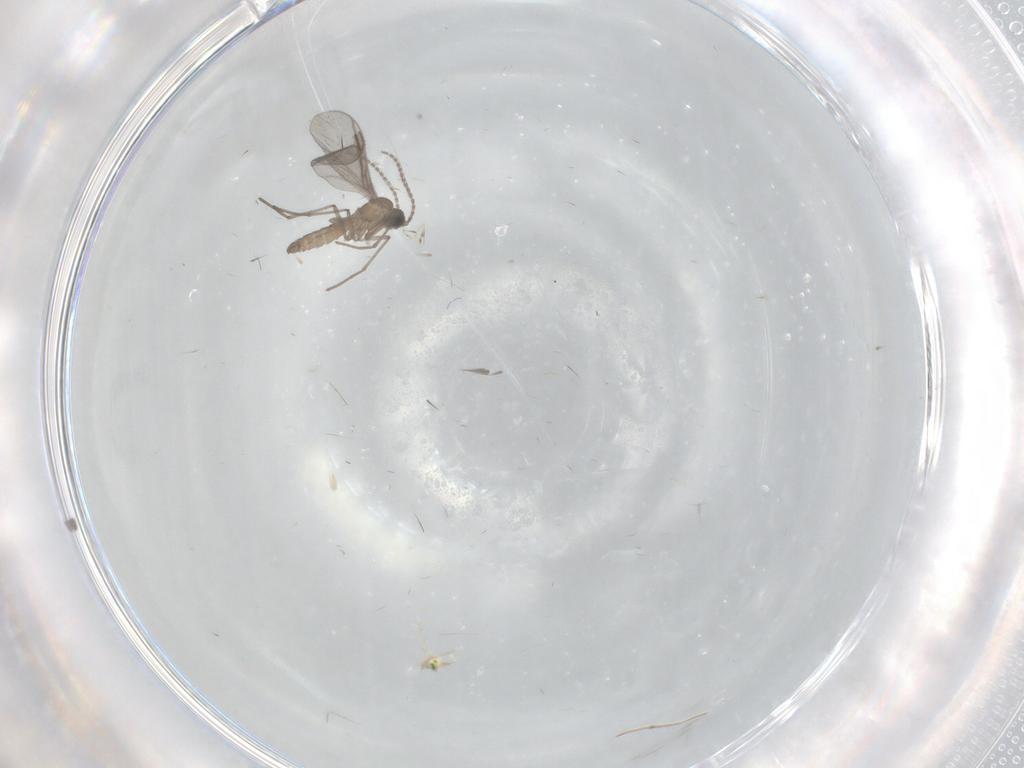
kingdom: Animalia
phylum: Arthropoda
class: Insecta
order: Diptera
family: Sciaridae
